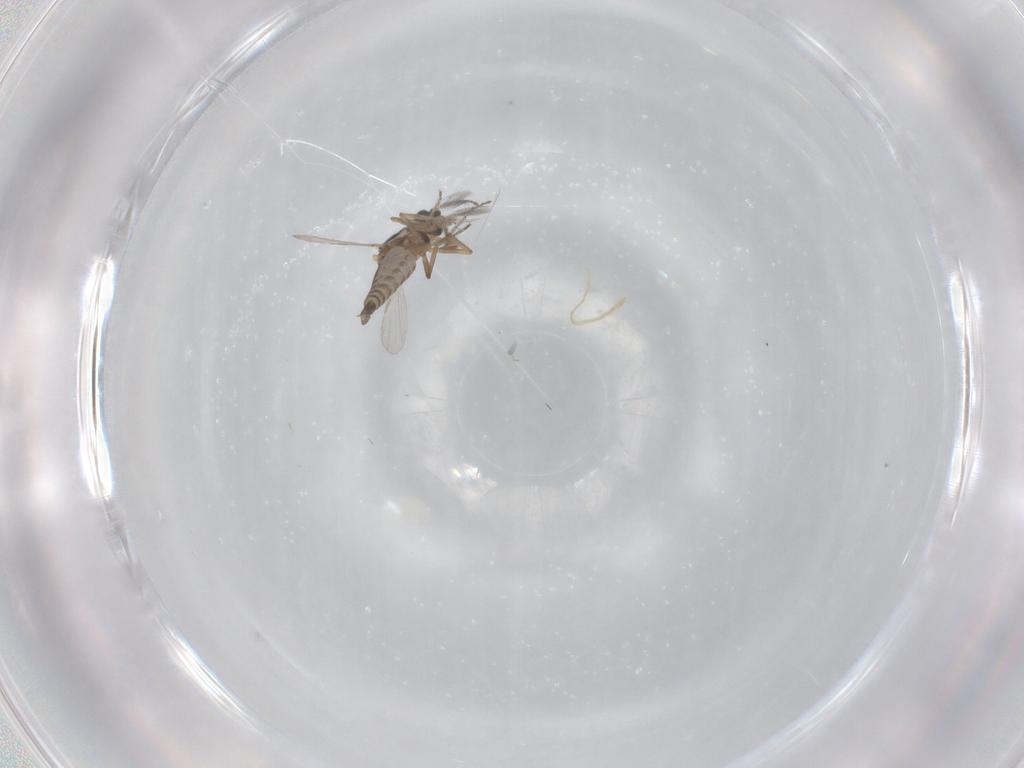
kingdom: Animalia
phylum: Arthropoda
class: Insecta
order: Diptera
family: Ceratopogonidae
